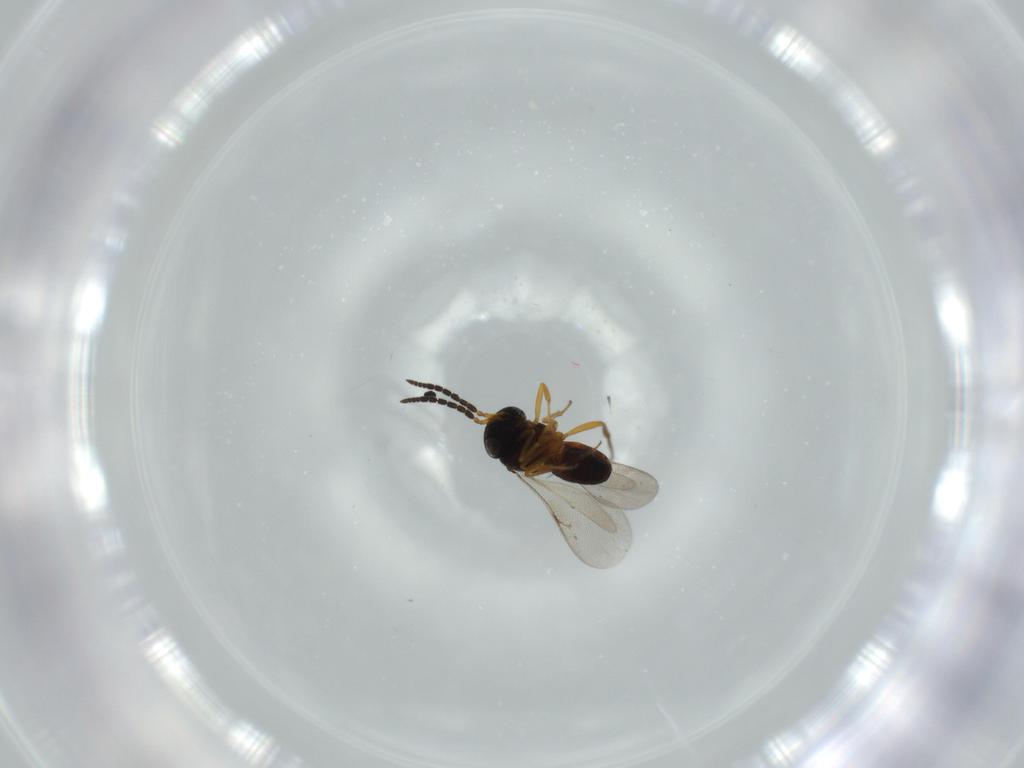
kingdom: Animalia
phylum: Arthropoda
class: Insecta
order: Coleoptera
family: Curculionidae
